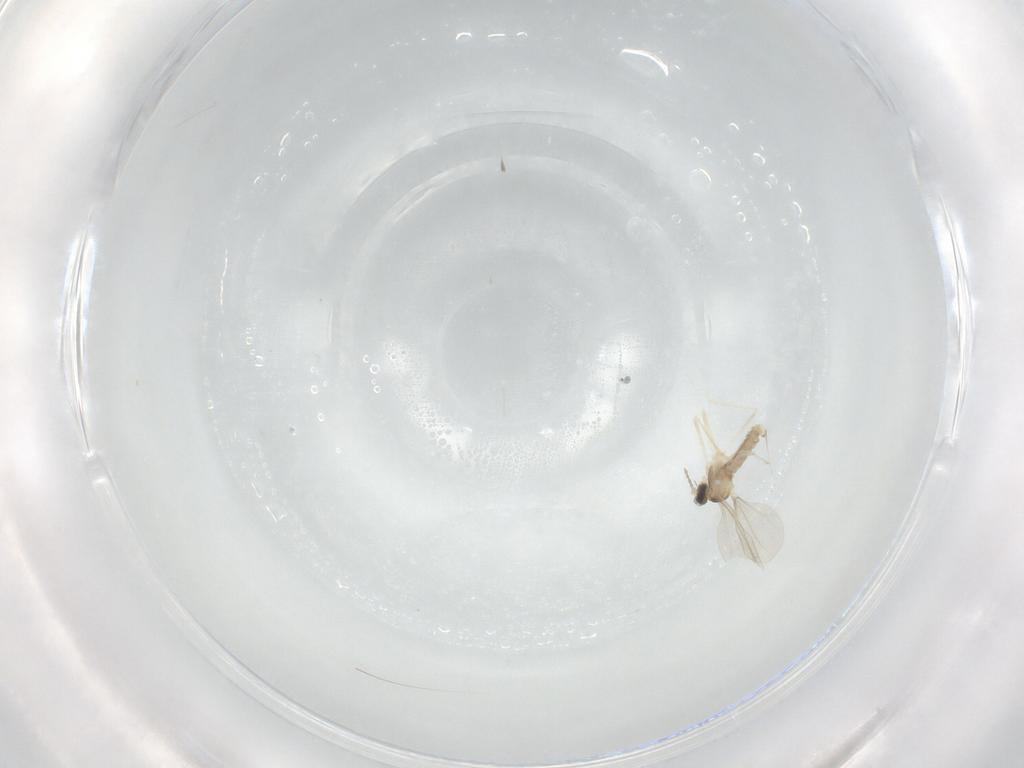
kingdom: Animalia
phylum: Arthropoda
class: Insecta
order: Diptera
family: Cecidomyiidae
